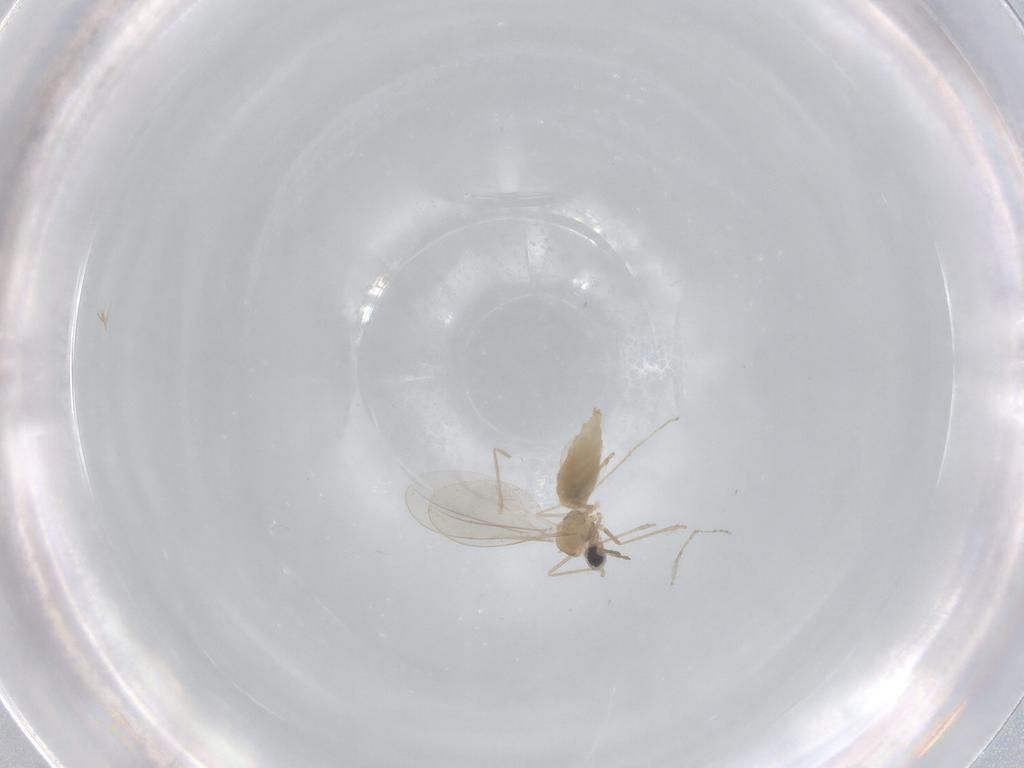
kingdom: Animalia
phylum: Arthropoda
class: Insecta
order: Diptera
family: Cecidomyiidae
